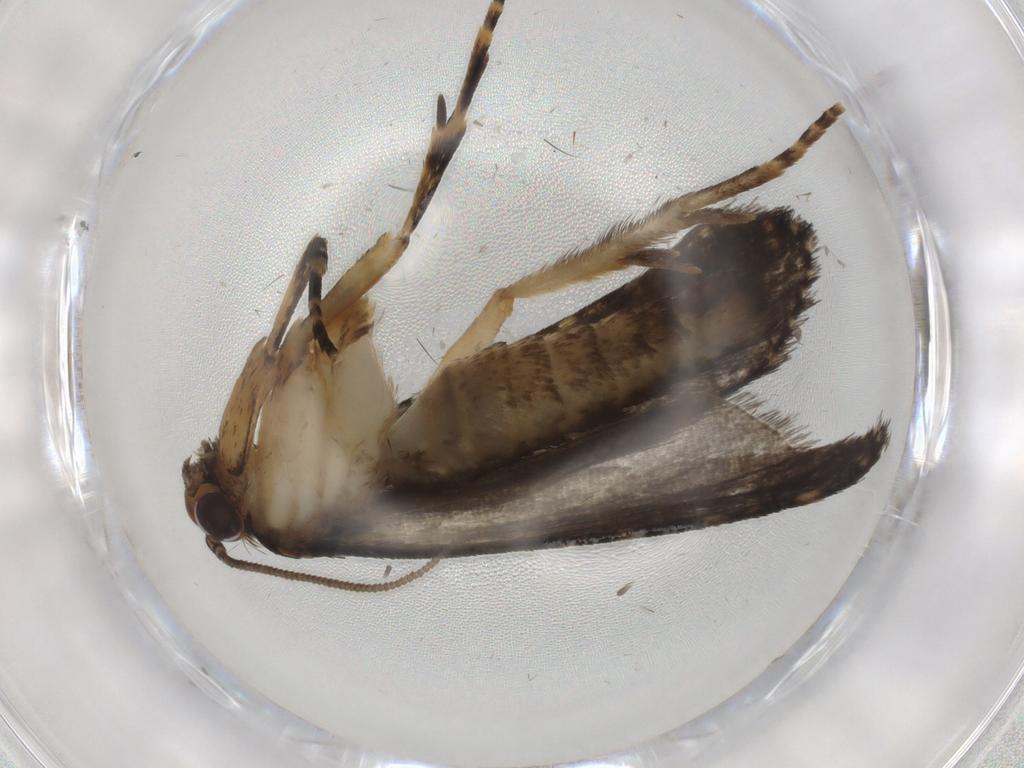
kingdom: Animalia
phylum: Arthropoda
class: Insecta
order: Lepidoptera
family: Tineidae
